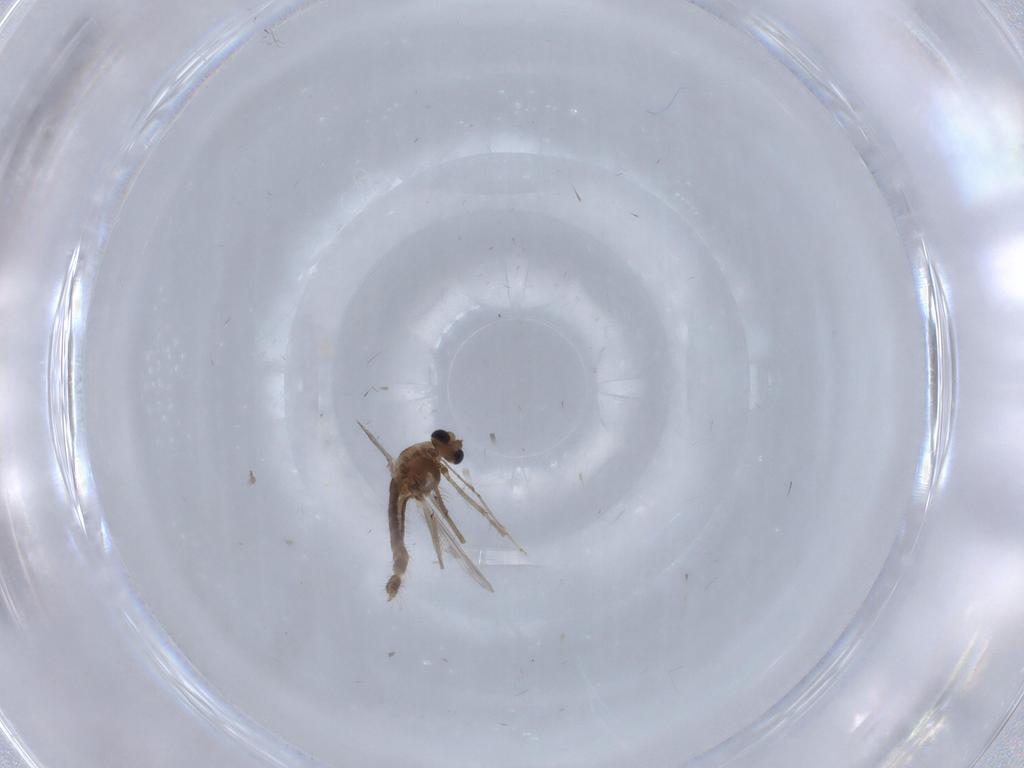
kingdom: Animalia
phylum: Arthropoda
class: Insecta
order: Diptera
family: Chironomidae
